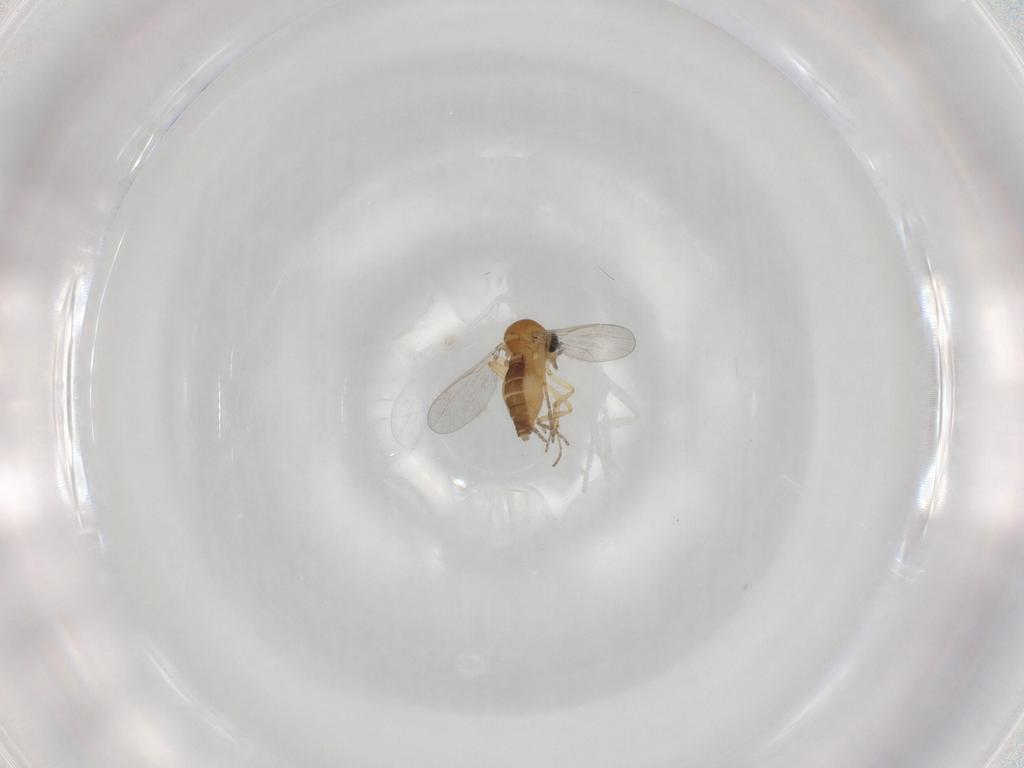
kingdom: Animalia
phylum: Arthropoda
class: Insecta
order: Diptera
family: Ceratopogonidae
